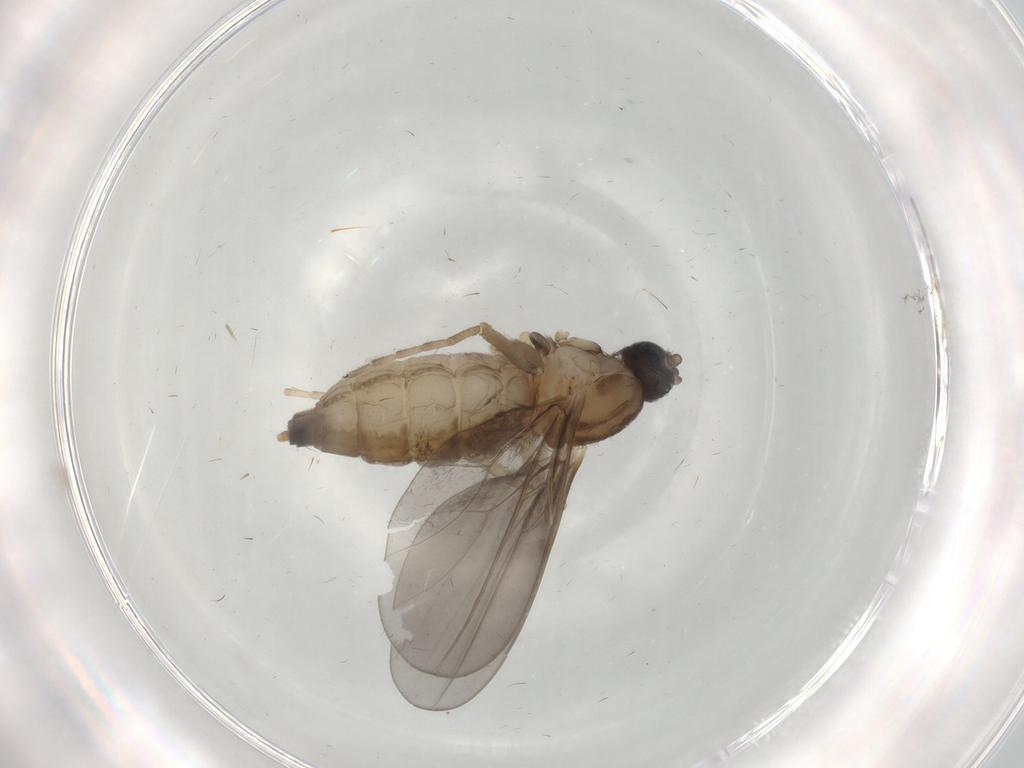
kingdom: Animalia
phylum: Arthropoda
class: Insecta
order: Diptera
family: Cecidomyiidae
